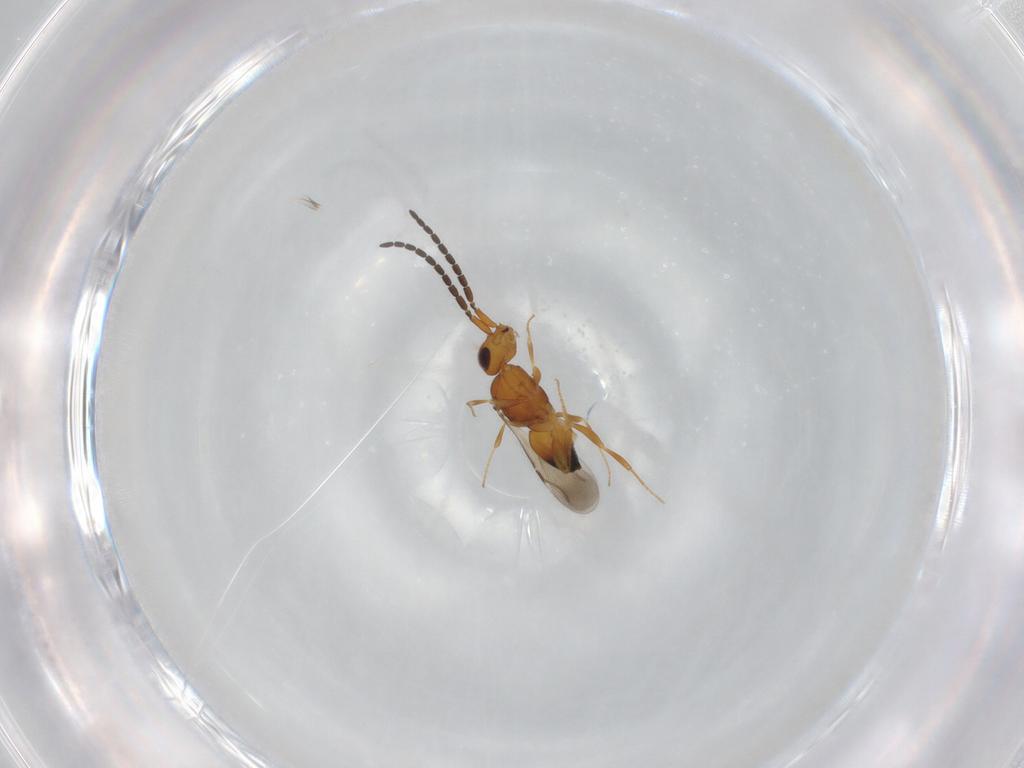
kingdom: Animalia
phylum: Arthropoda
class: Insecta
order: Hymenoptera
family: Ceraphronidae
